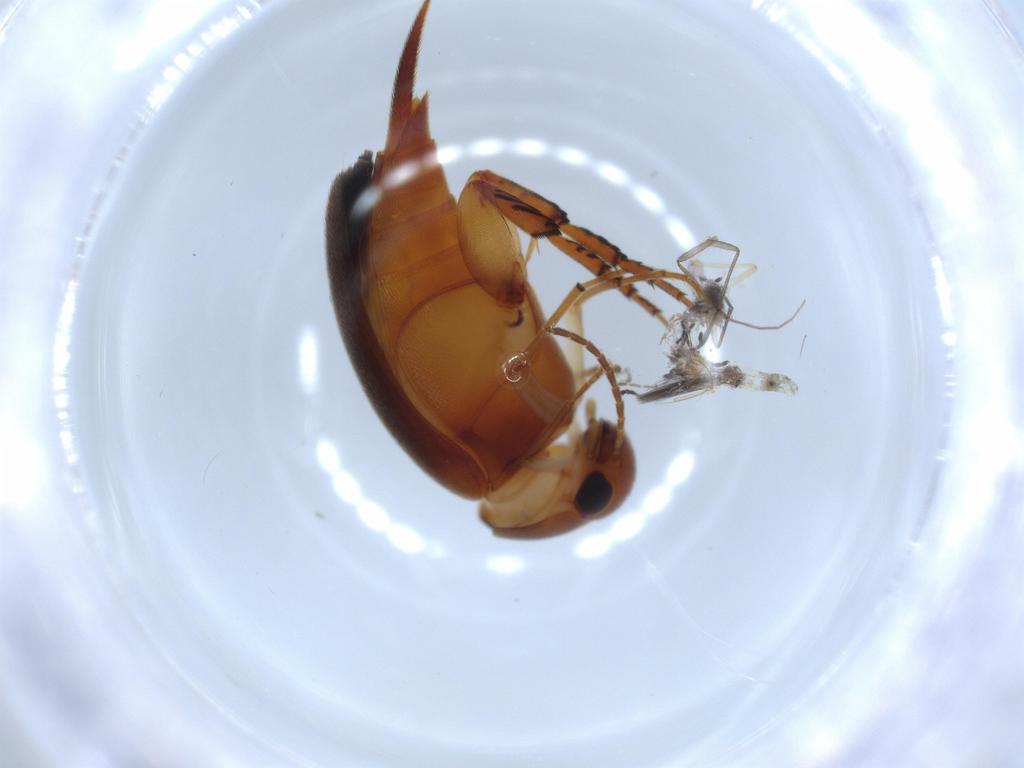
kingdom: Animalia
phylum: Arthropoda
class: Insecta
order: Coleoptera
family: Mordellidae
